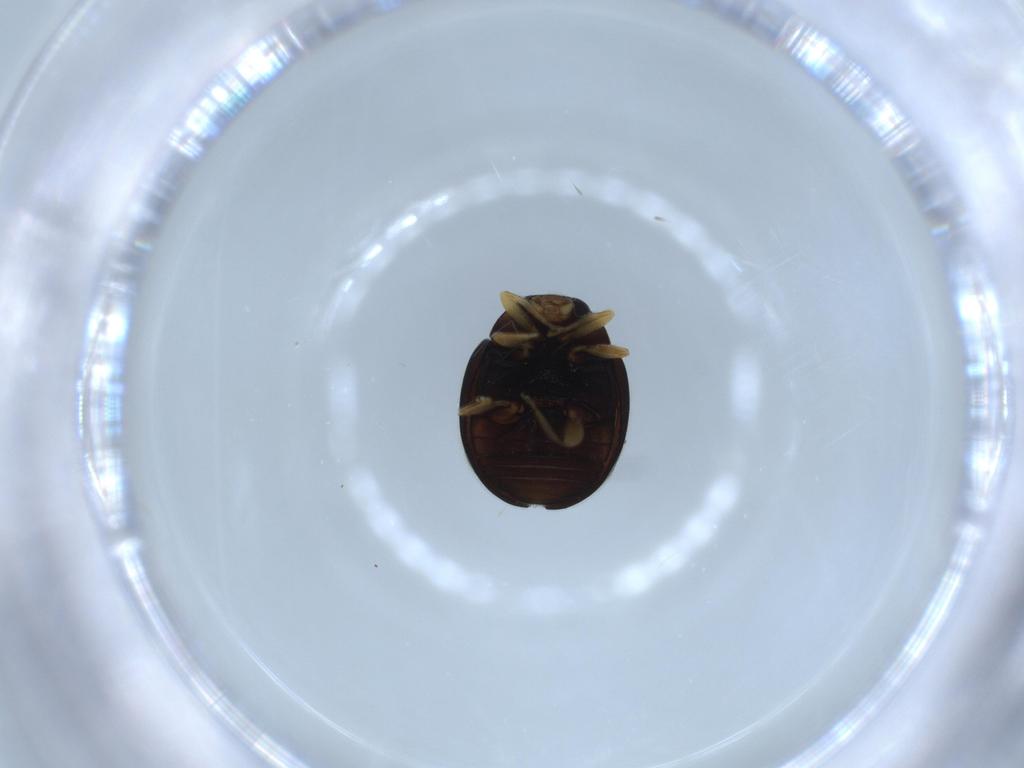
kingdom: Animalia
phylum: Arthropoda
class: Insecta
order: Coleoptera
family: Coccinellidae
